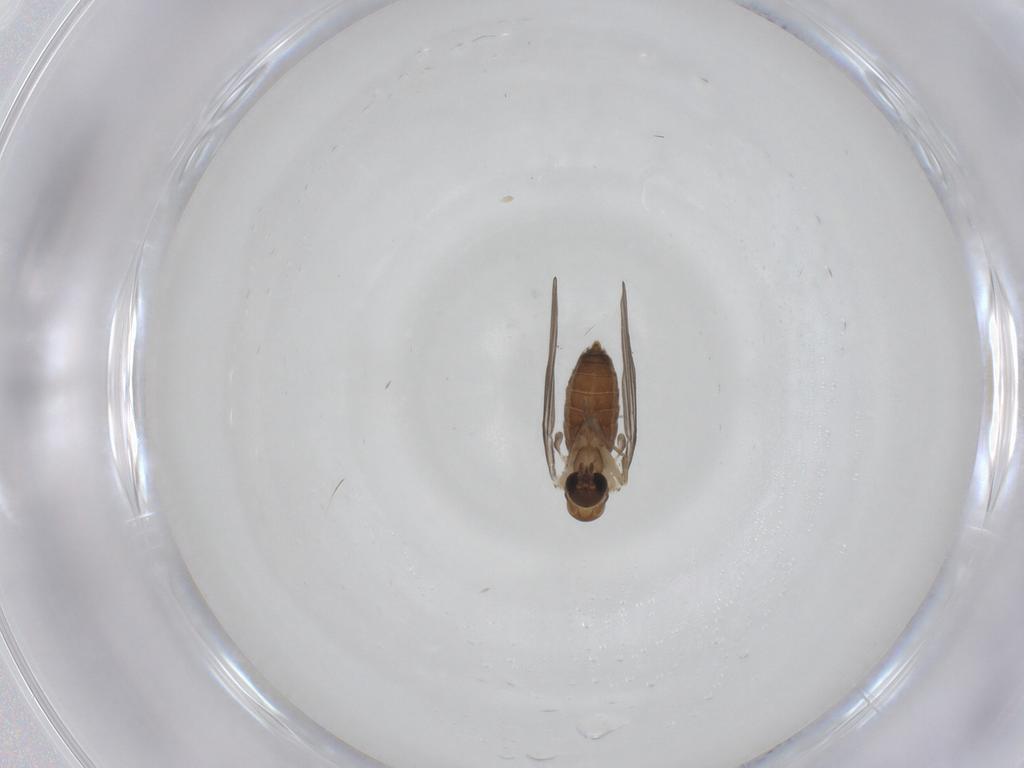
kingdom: Animalia
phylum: Arthropoda
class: Insecta
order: Diptera
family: Psychodidae
